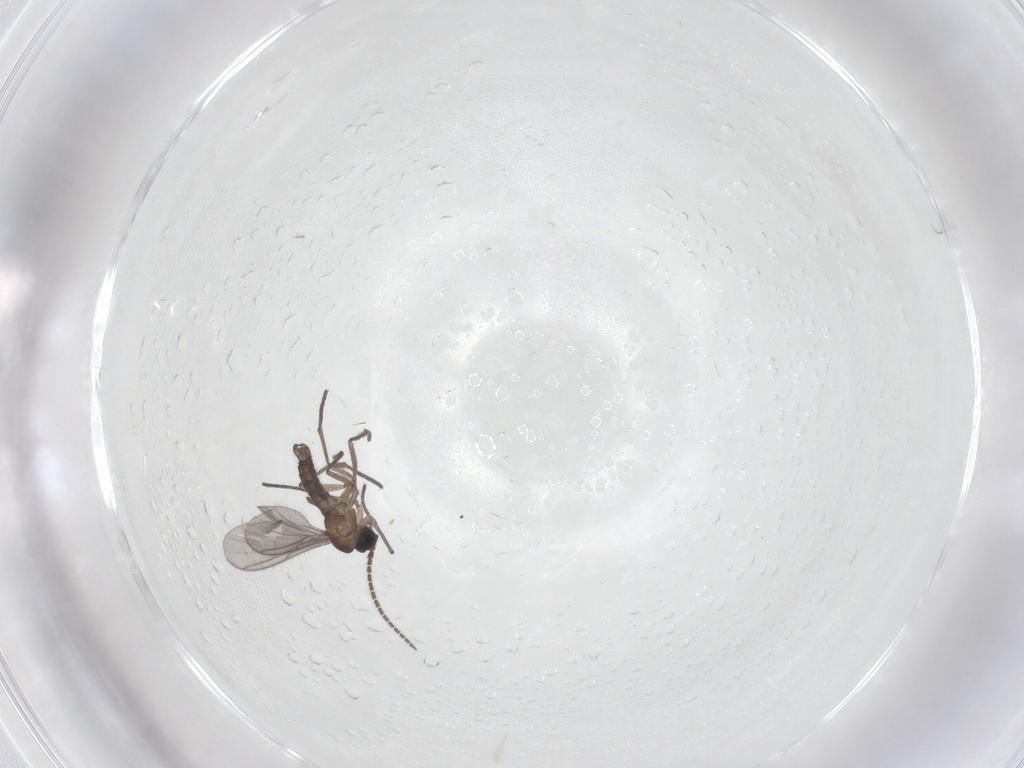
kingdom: Animalia
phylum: Arthropoda
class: Insecta
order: Diptera
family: Sciaridae
